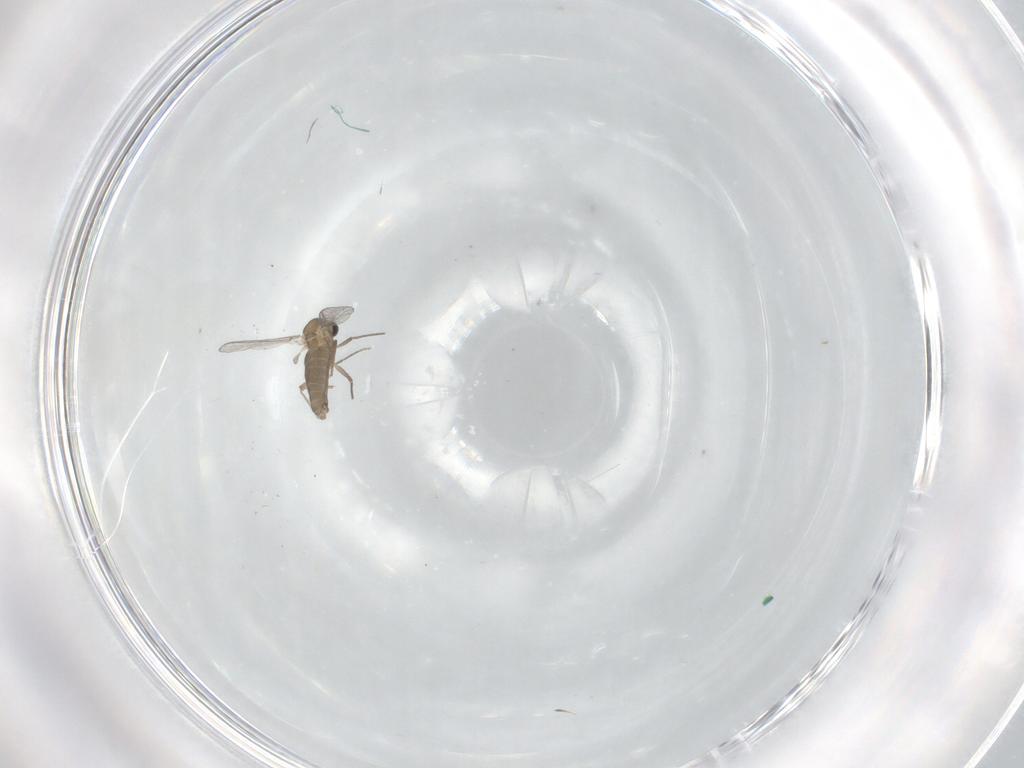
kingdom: Animalia
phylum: Arthropoda
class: Insecta
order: Diptera
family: Chironomidae
